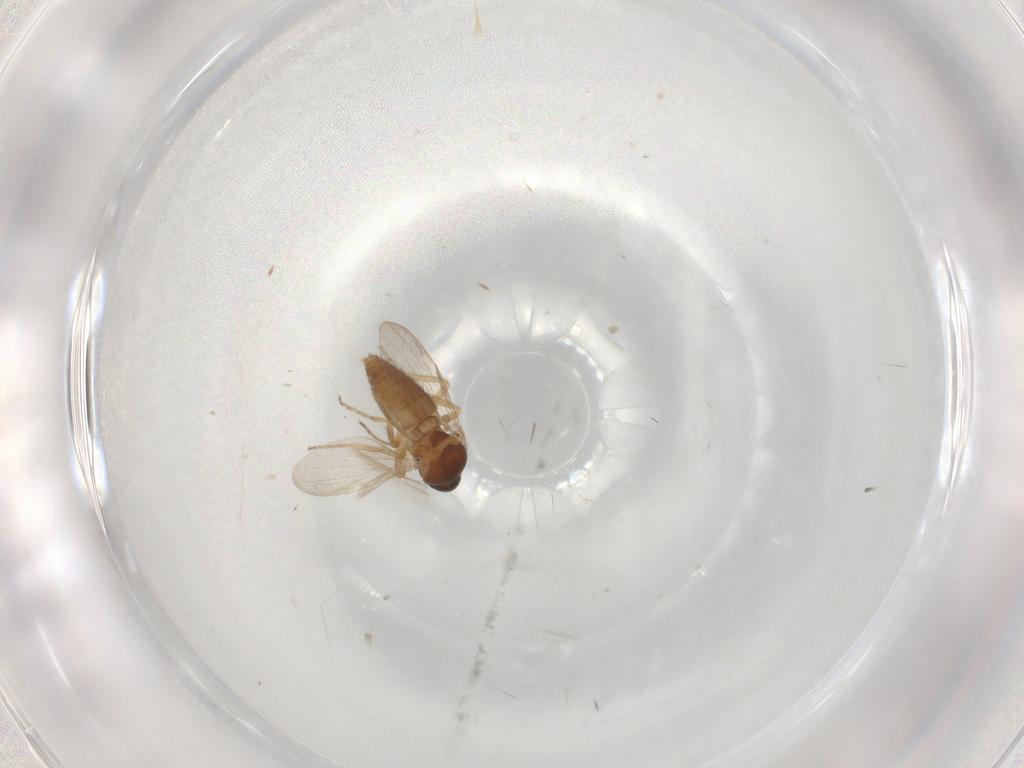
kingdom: Animalia
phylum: Arthropoda
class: Insecta
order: Diptera
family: Ceratopogonidae
